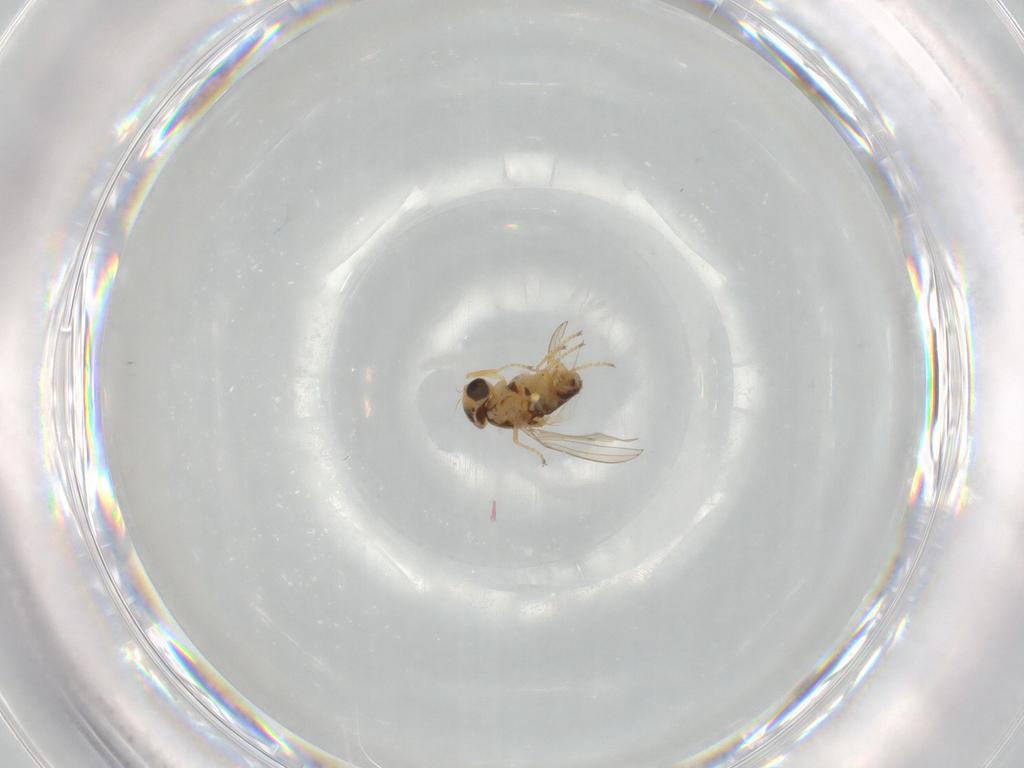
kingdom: Animalia
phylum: Arthropoda
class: Insecta
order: Diptera
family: Chyromyidae
